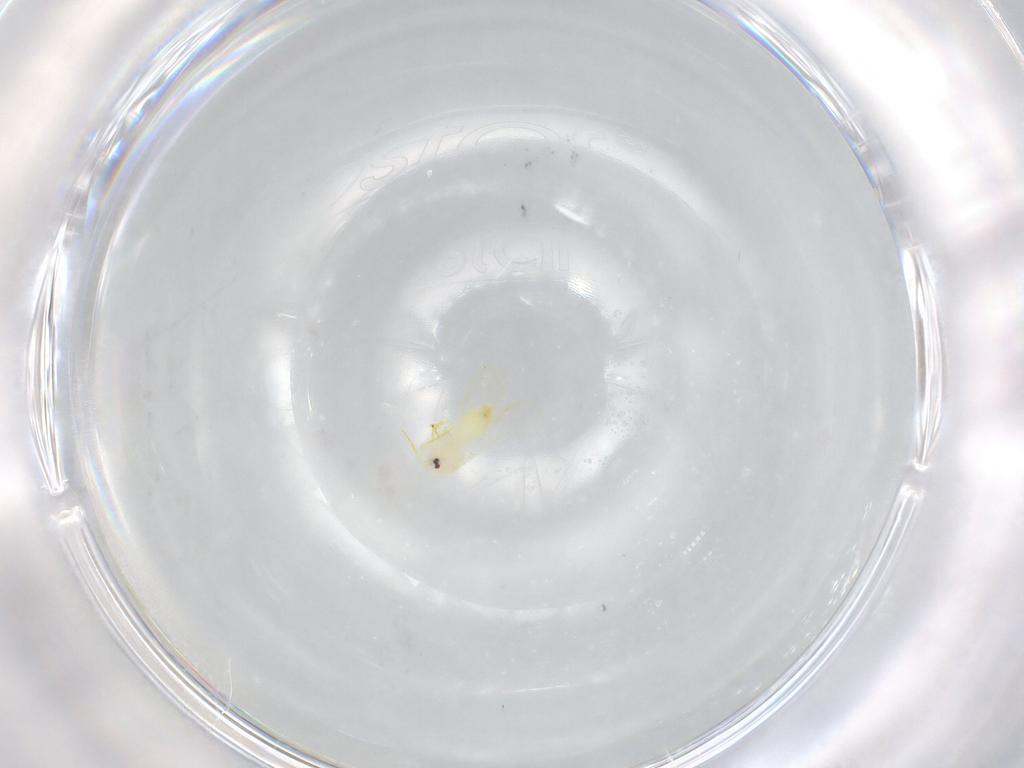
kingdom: Animalia
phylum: Arthropoda
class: Insecta
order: Hemiptera
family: Aleyrodidae
